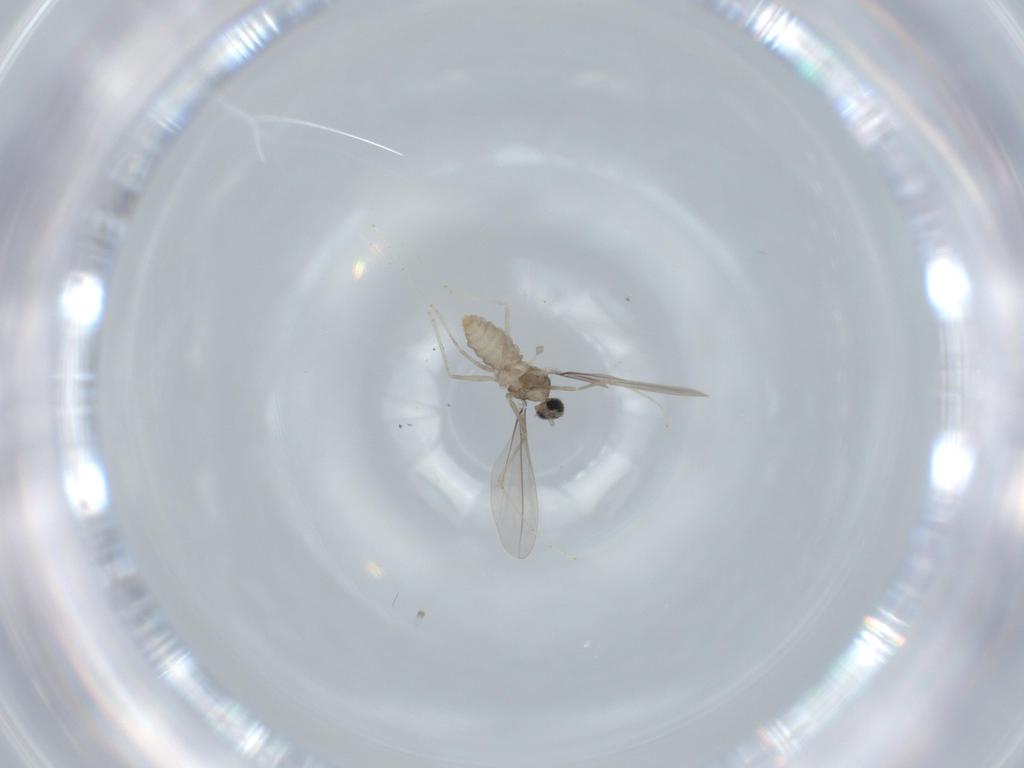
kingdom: Animalia
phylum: Arthropoda
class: Insecta
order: Diptera
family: Cecidomyiidae
